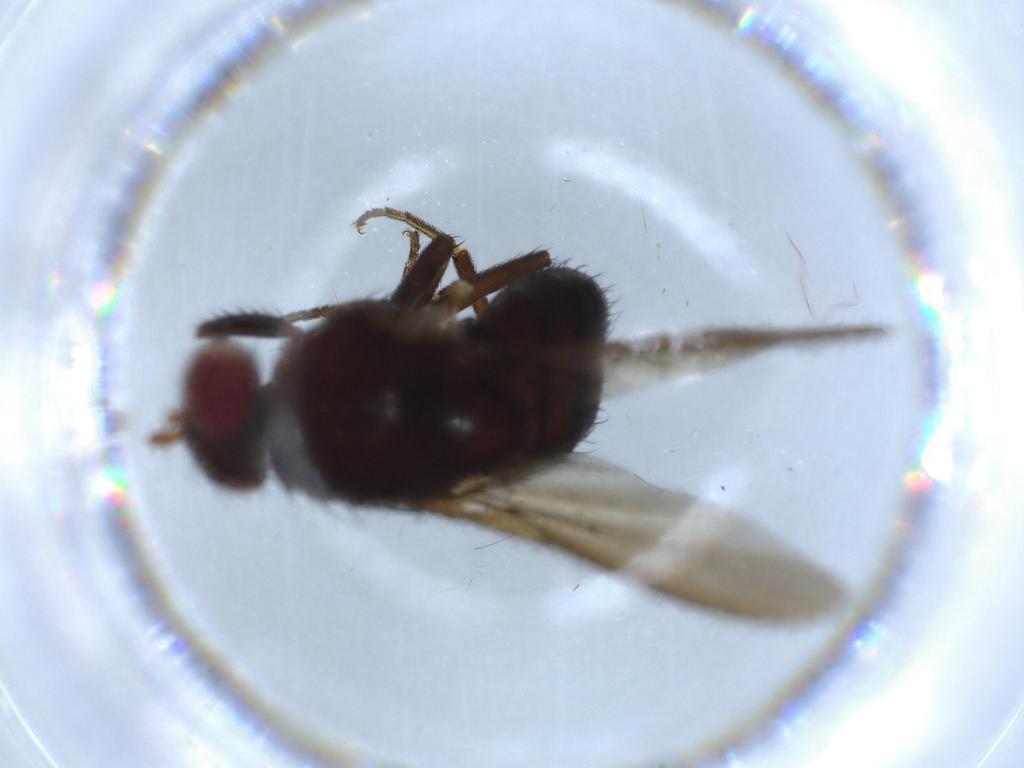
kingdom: Animalia
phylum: Arthropoda
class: Insecta
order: Diptera
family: Cecidomyiidae
